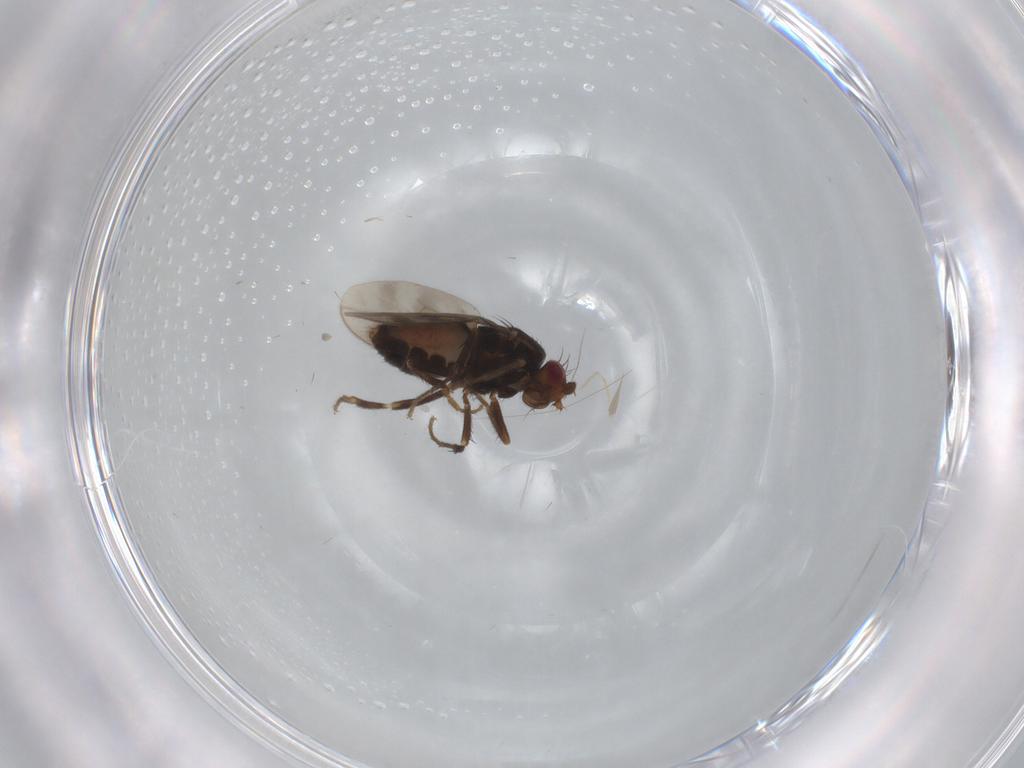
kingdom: Animalia
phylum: Arthropoda
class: Insecta
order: Diptera
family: Sphaeroceridae
